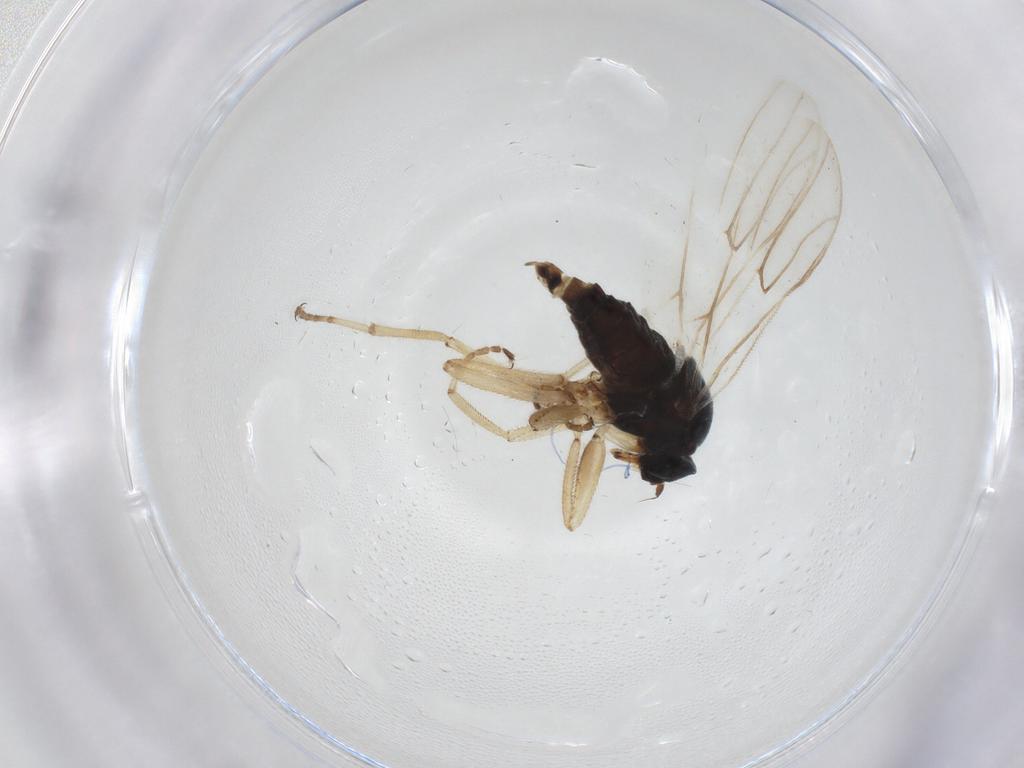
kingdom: Animalia
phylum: Arthropoda
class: Insecta
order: Diptera
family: Hybotidae
